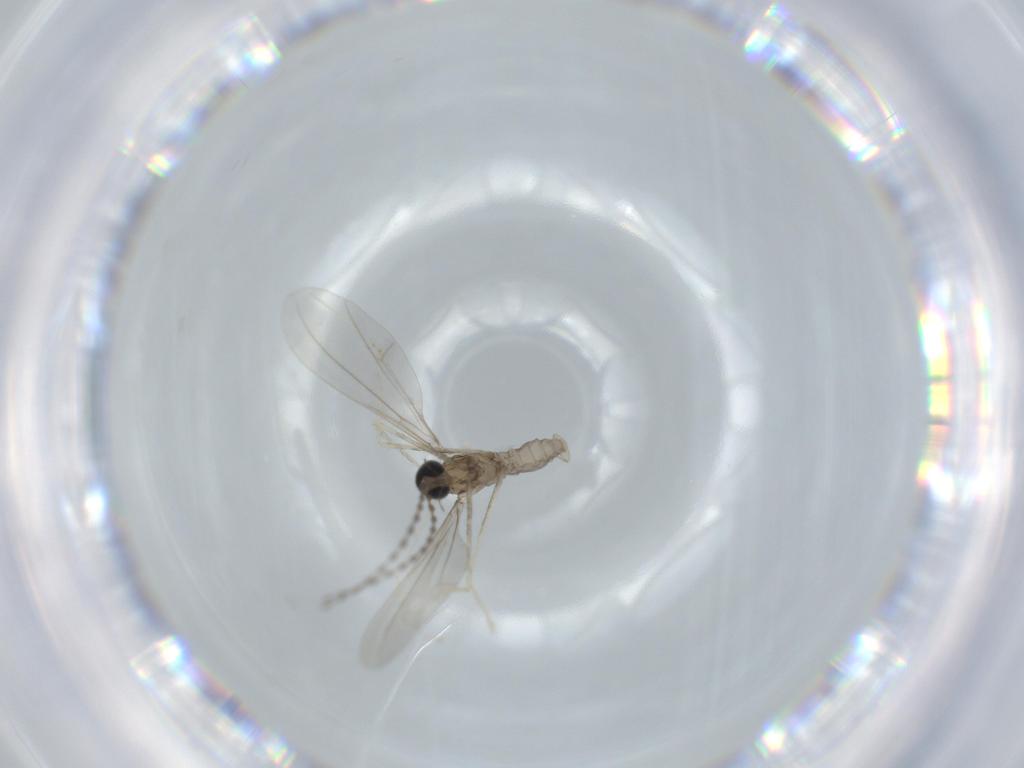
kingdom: Animalia
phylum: Arthropoda
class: Insecta
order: Diptera
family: Cecidomyiidae
